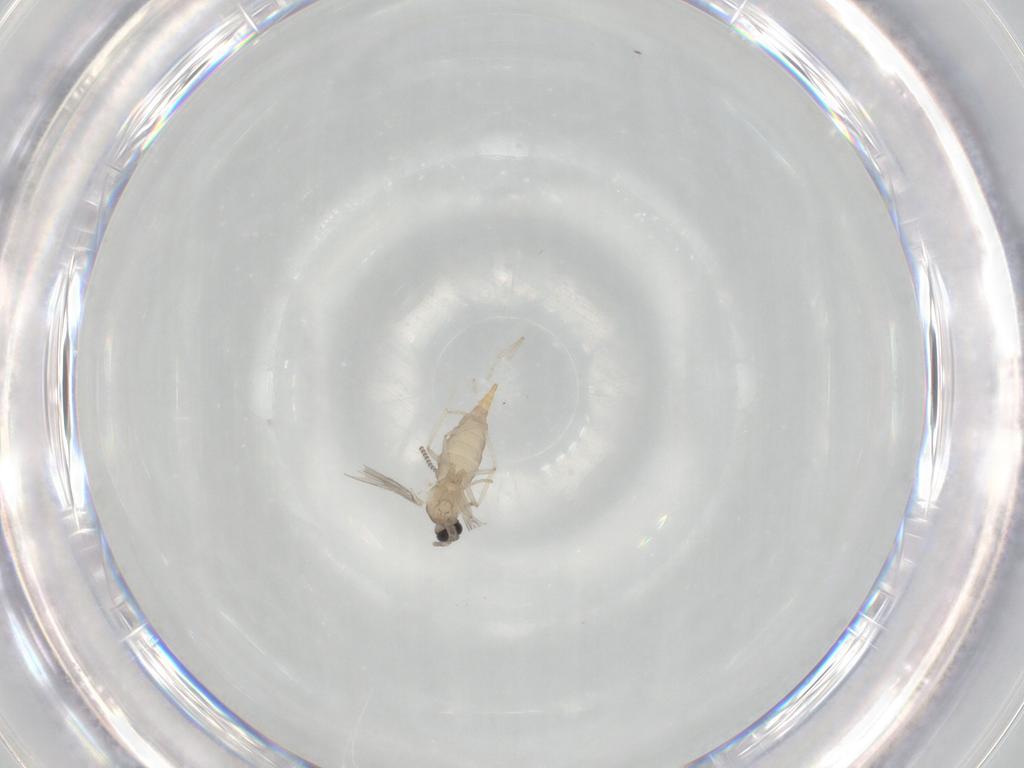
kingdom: Animalia
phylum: Arthropoda
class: Insecta
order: Diptera
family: Cecidomyiidae
